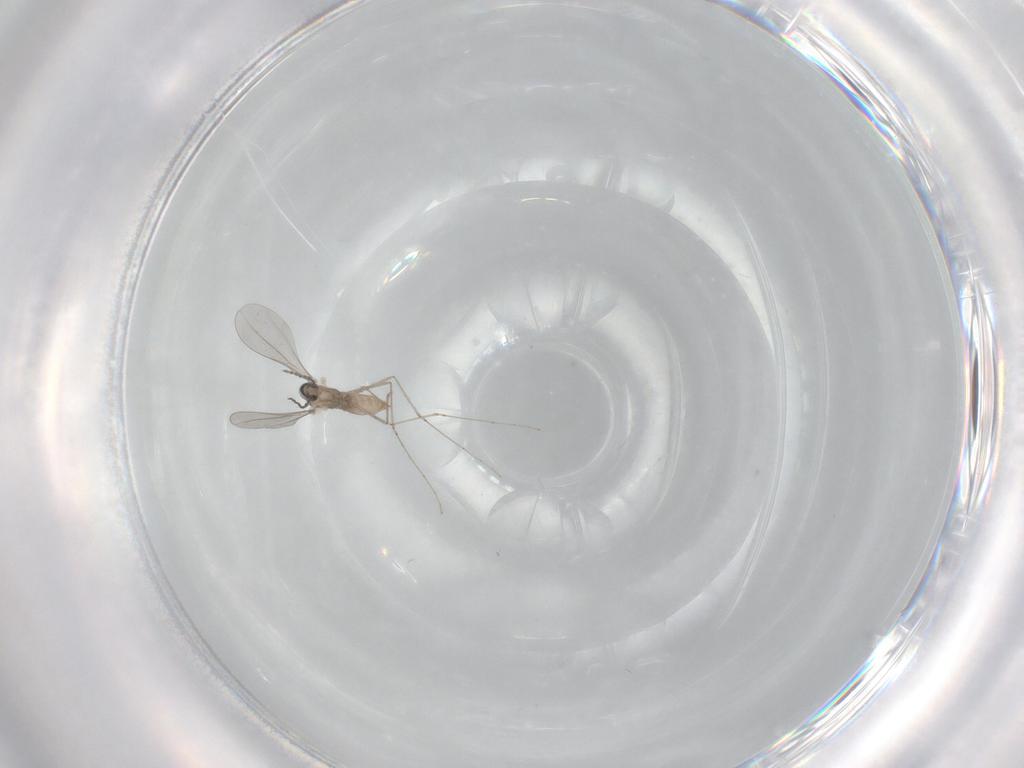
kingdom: Animalia
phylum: Arthropoda
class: Insecta
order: Diptera
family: Cecidomyiidae
